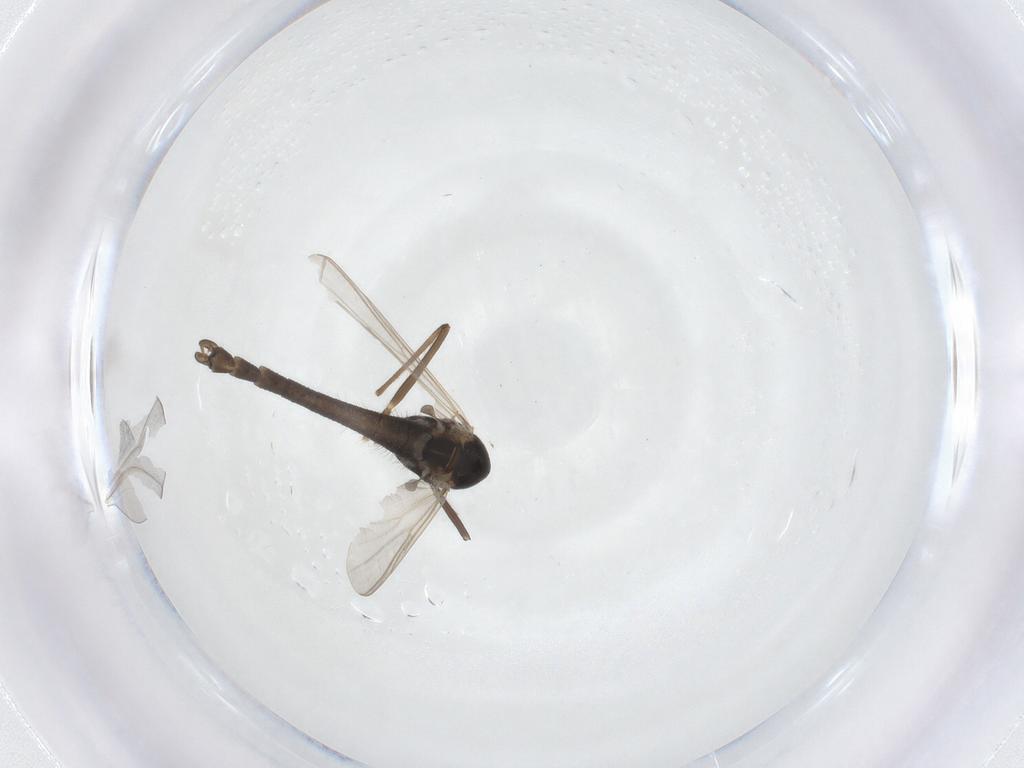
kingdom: Animalia
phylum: Arthropoda
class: Insecta
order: Diptera
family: Chironomidae
